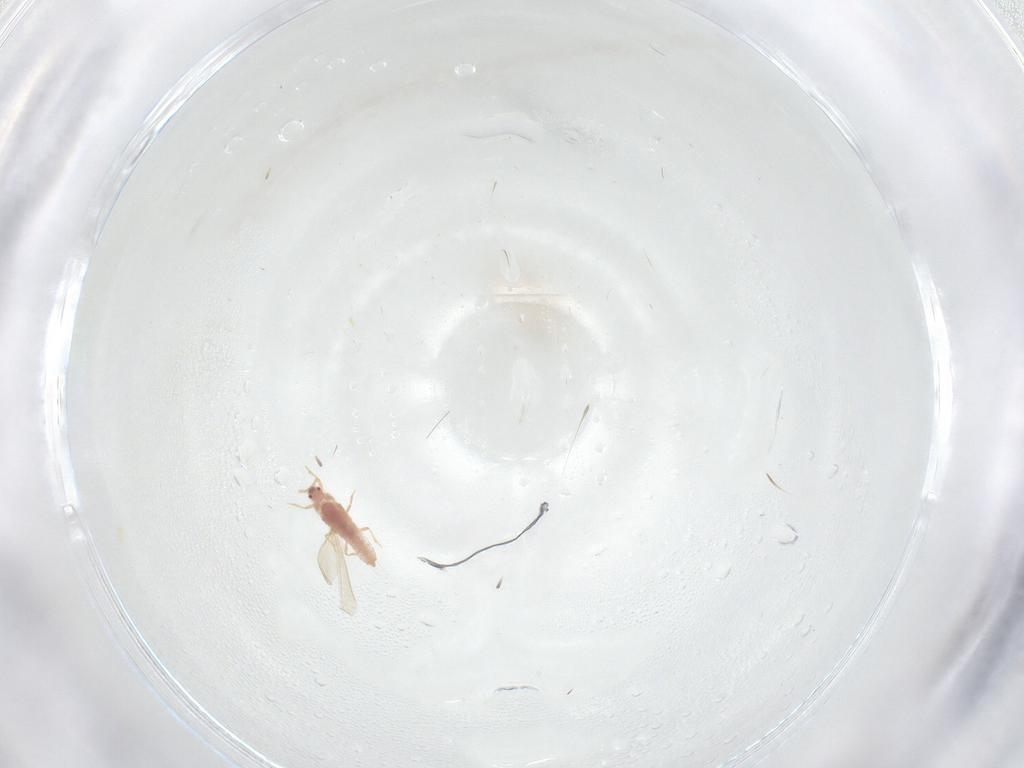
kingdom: Animalia
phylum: Arthropoda
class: Insecta
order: Hemiptera
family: Cicadellidae
